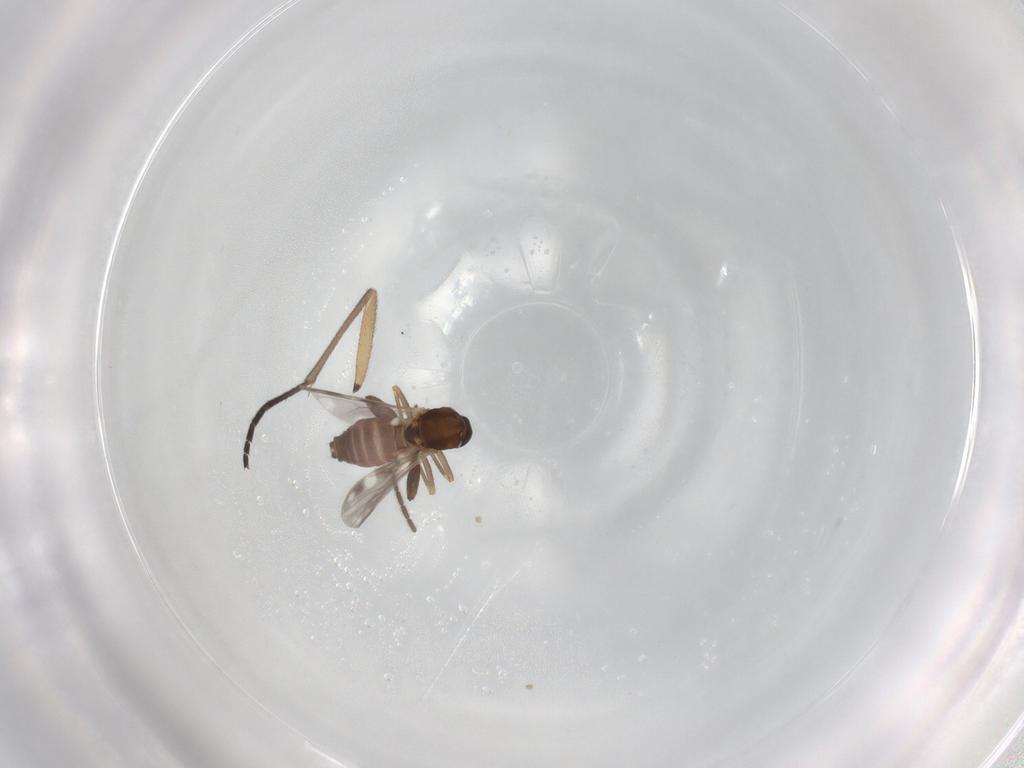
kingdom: Animalia
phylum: Arthropoda
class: Insecta
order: Diptera
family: Ceratopogonidae
